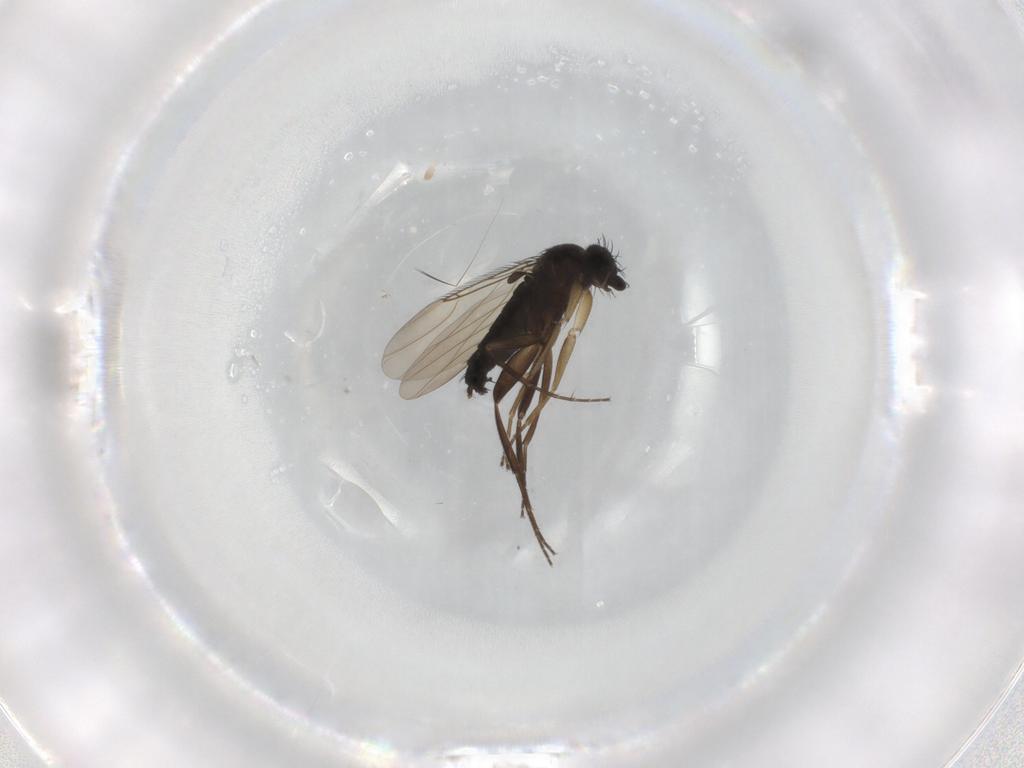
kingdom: Animalia
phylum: Arthropoda
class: Insecta
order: Diptera
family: Phoridae
